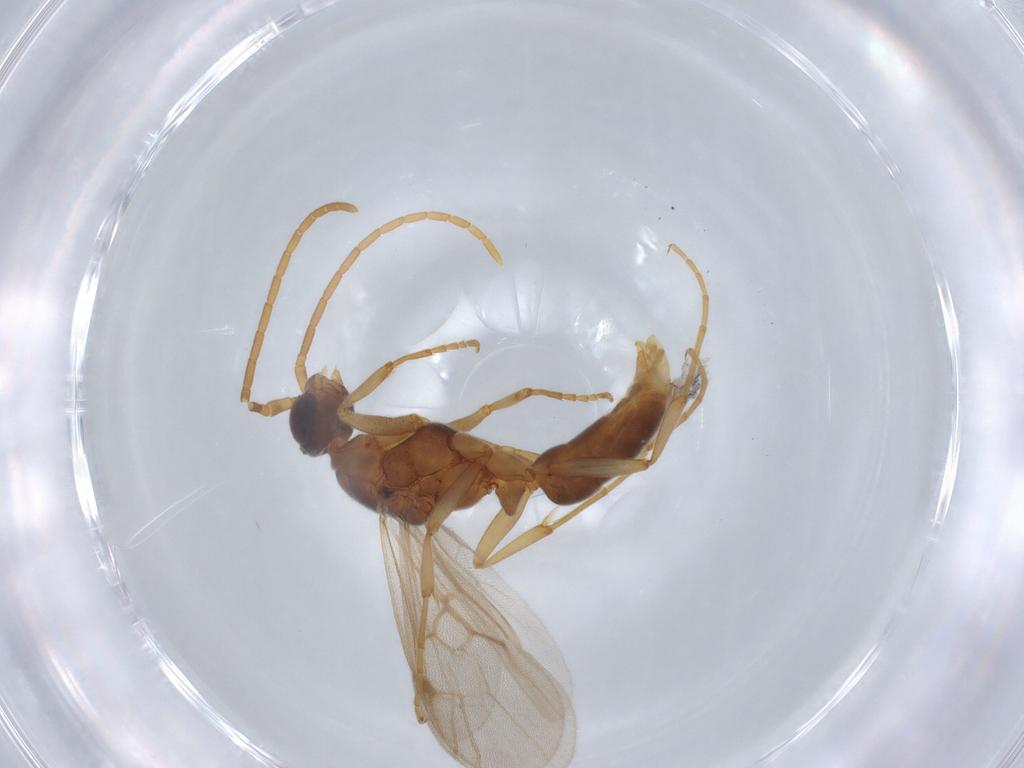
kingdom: Animalia
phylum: Arthropoda
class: Insecta
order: Hymenoptera
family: Formicidae
